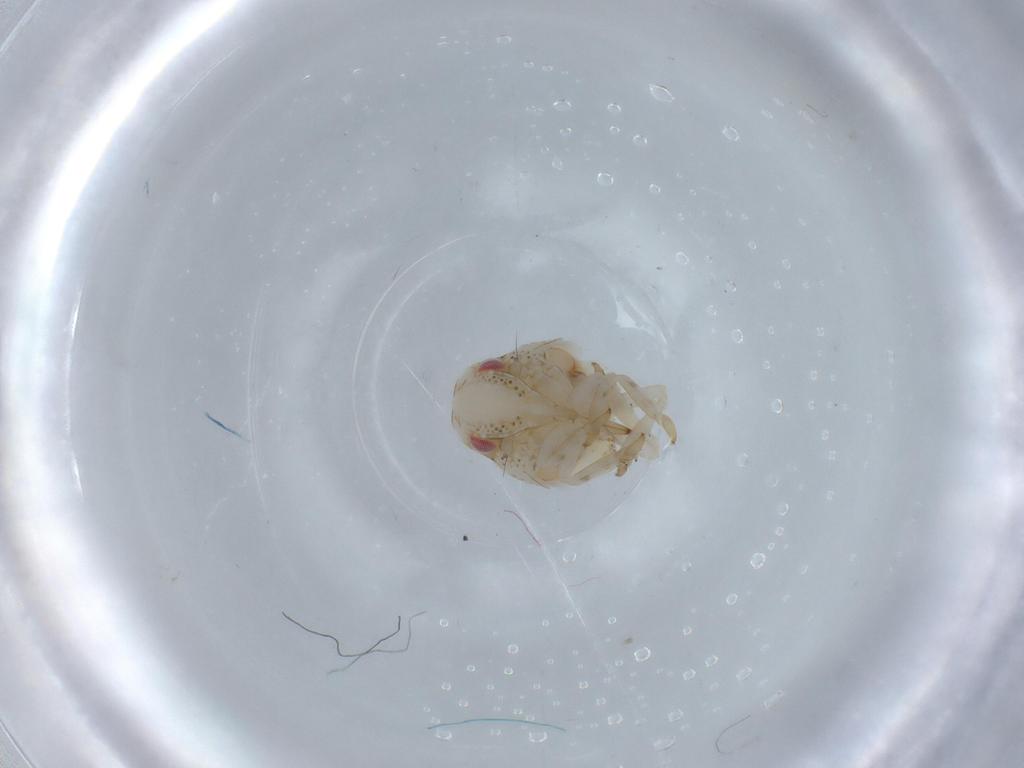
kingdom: Animalia
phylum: Arthropoda
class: Insecta
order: Hemiptera
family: Acanaloniidae
